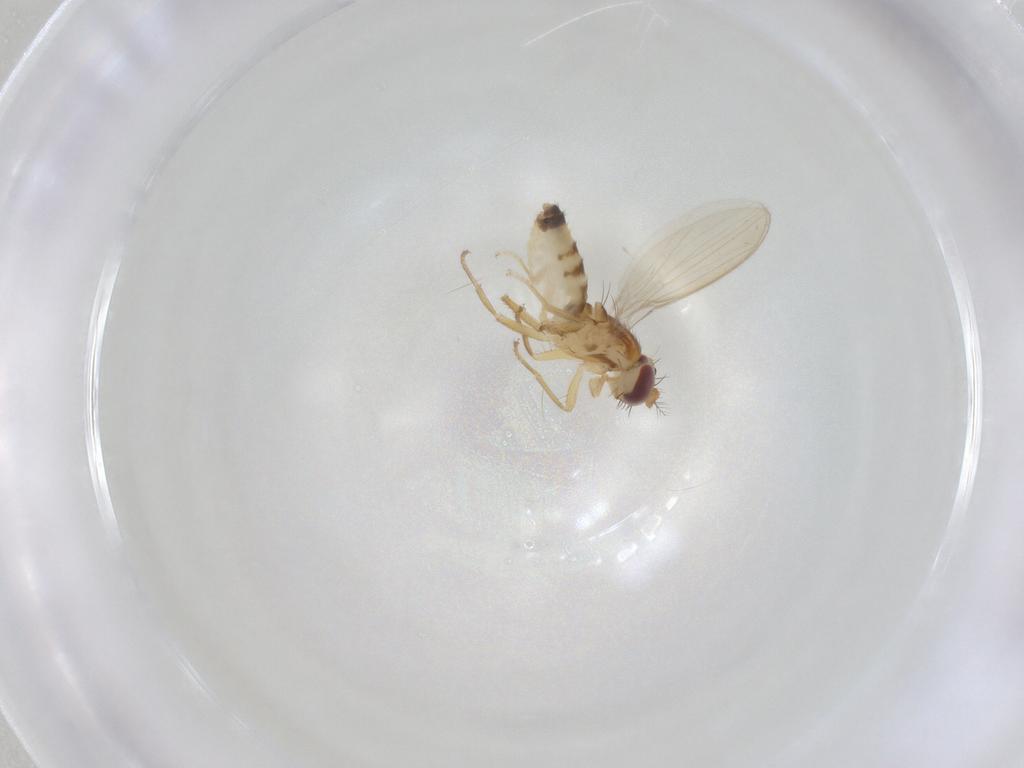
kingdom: Animalia
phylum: Arthropoda
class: Insecta
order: Diptera
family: Periscelididae
